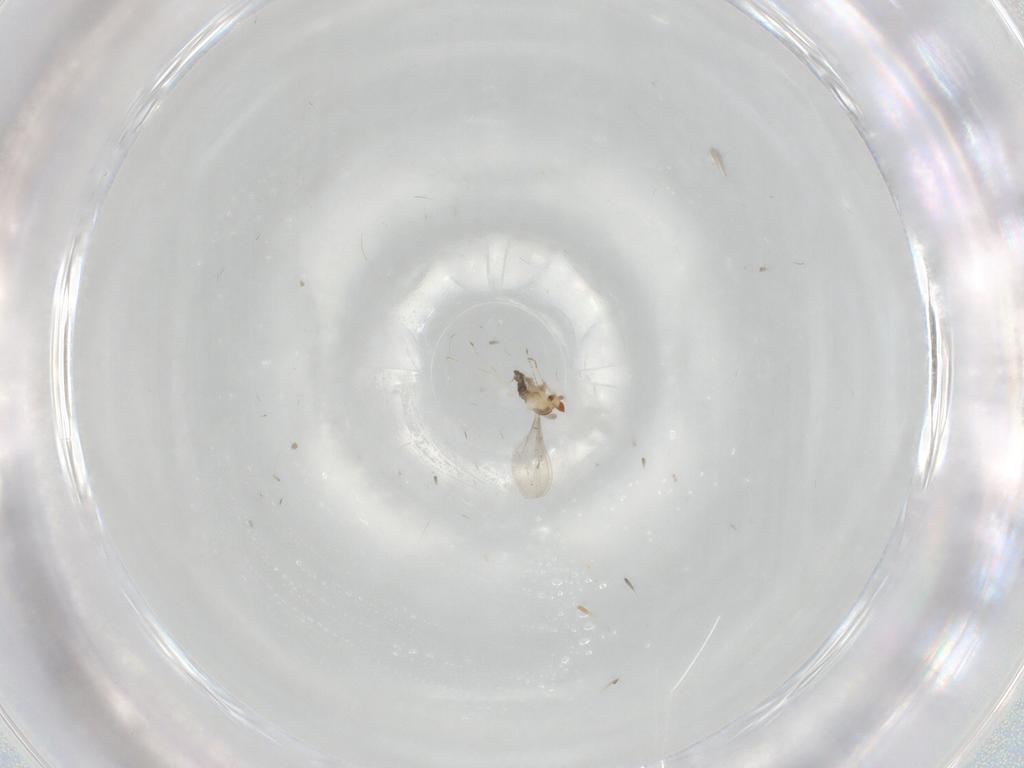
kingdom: Animalia
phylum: Arthropoda
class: Insecta
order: Diptera
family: Cecidomyiidae
